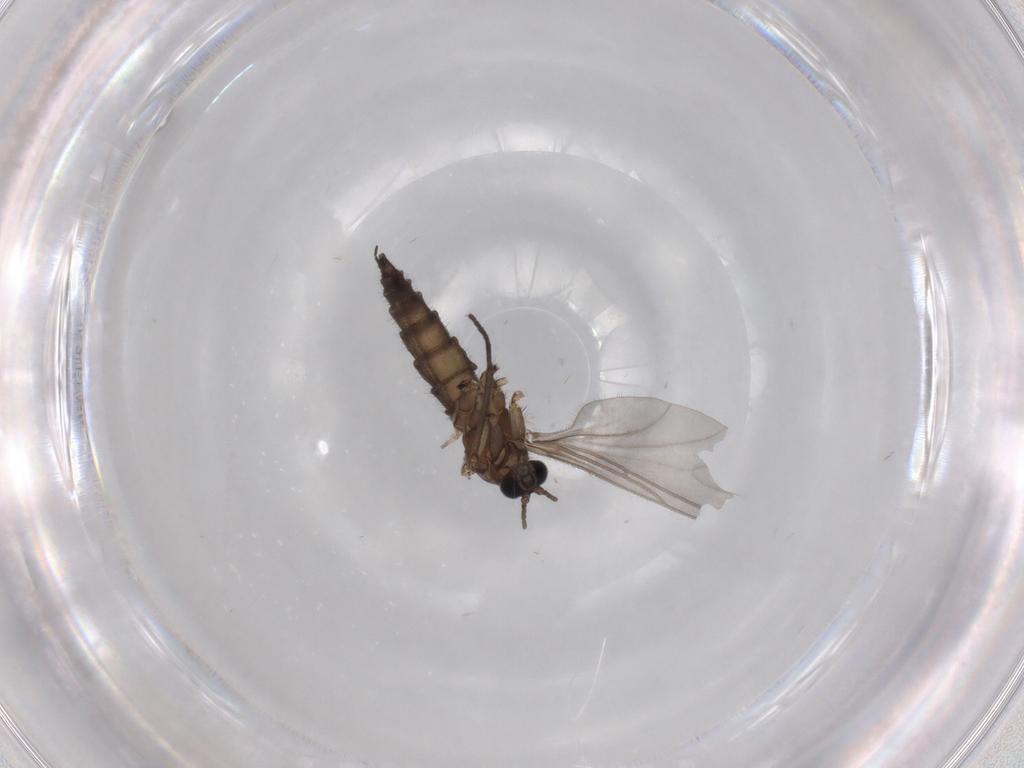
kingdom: Animalia
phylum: Arthropoda
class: Insecta
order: Diptera
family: Sciaridae
